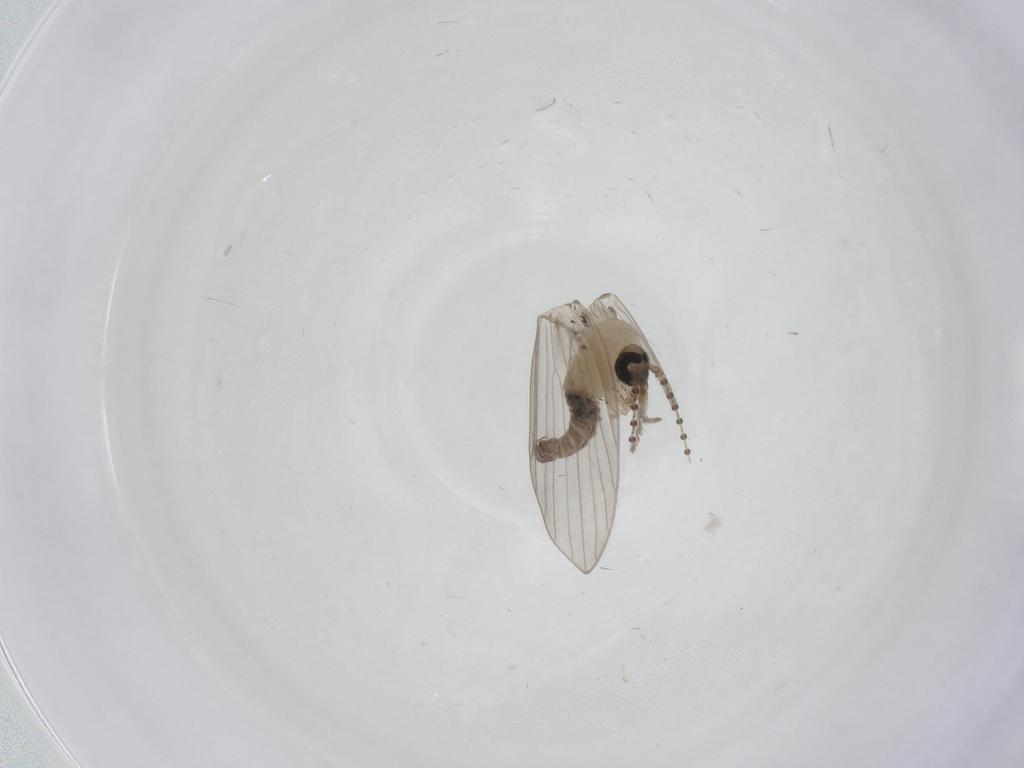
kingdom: Animalia
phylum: Arthropoda
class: Insecta
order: Diptera
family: Psychodidae
